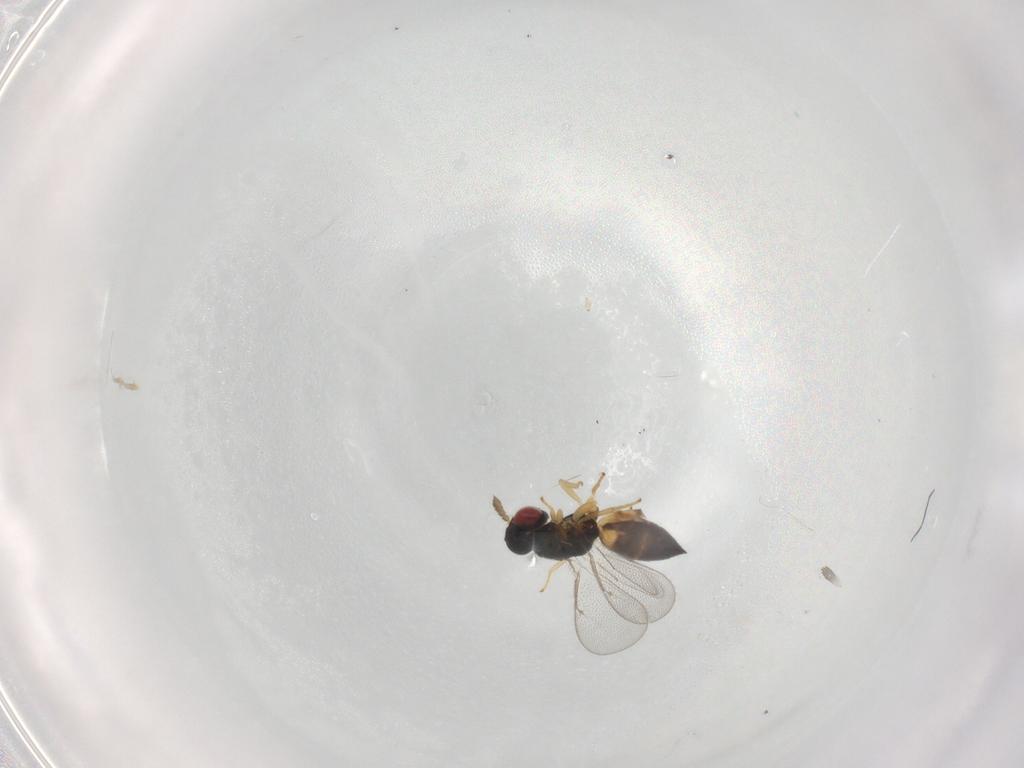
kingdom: Animalia
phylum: Arthropoda
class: Insecta
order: Hymenoptera
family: Eulophidae
